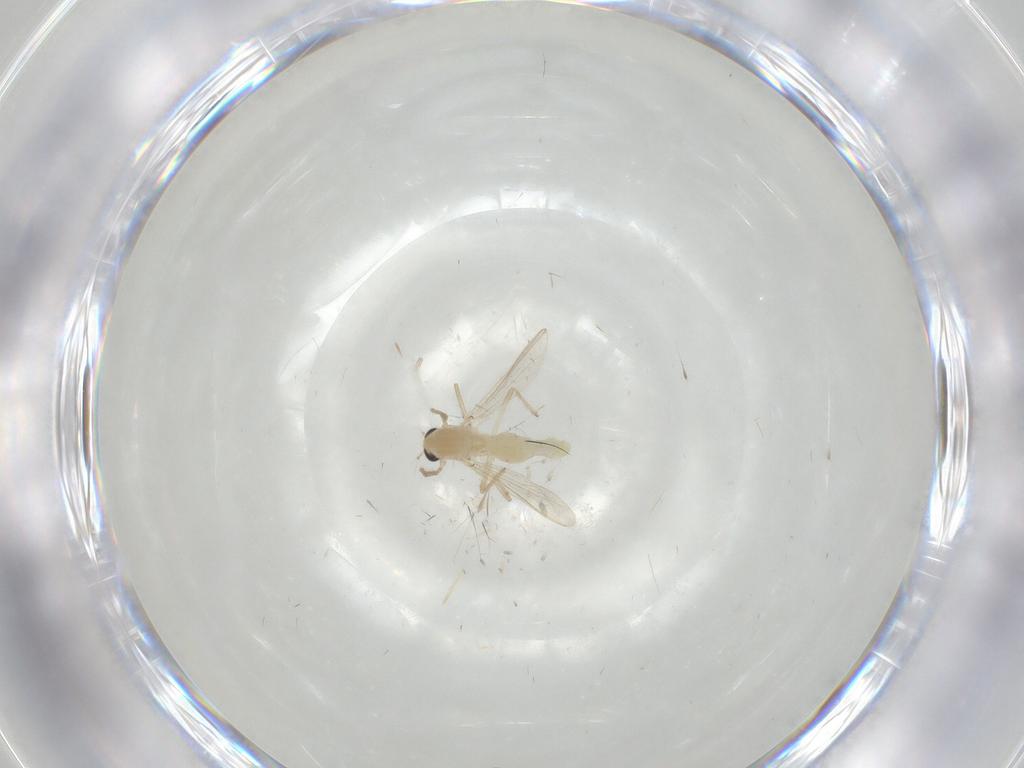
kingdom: Animalia
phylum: Arthropoda
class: Insecta
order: Diptera
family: Chironomidae
